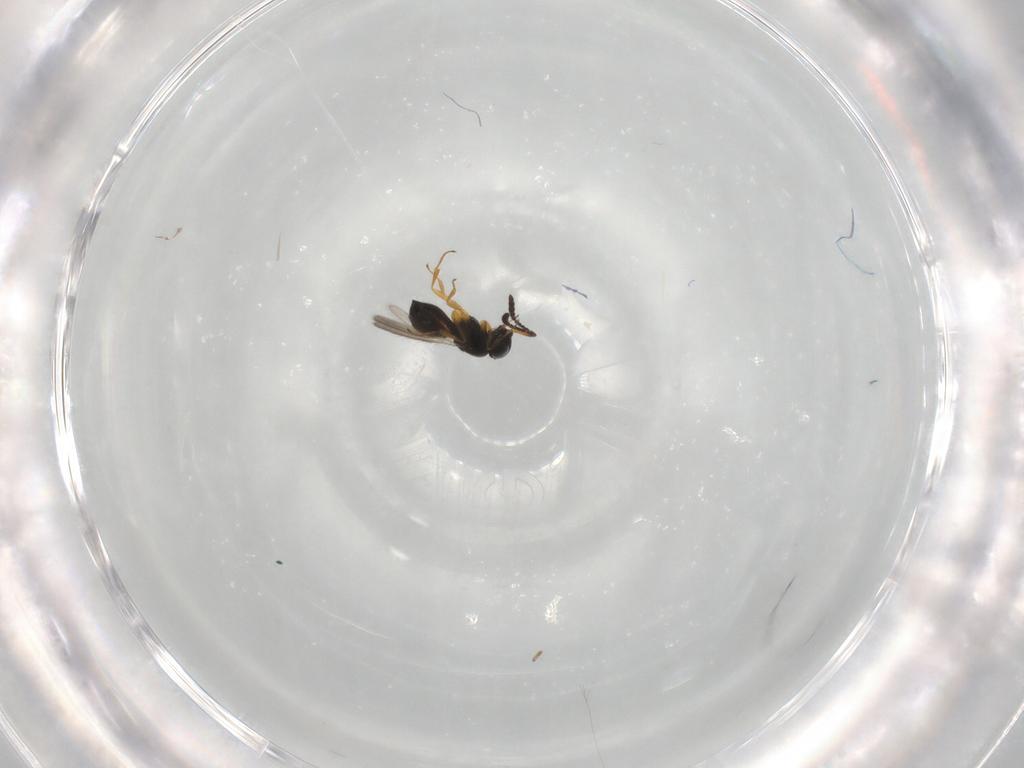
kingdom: Animalia
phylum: Arthropoda
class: Insecta
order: Hymenoptera
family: Scelionidae
